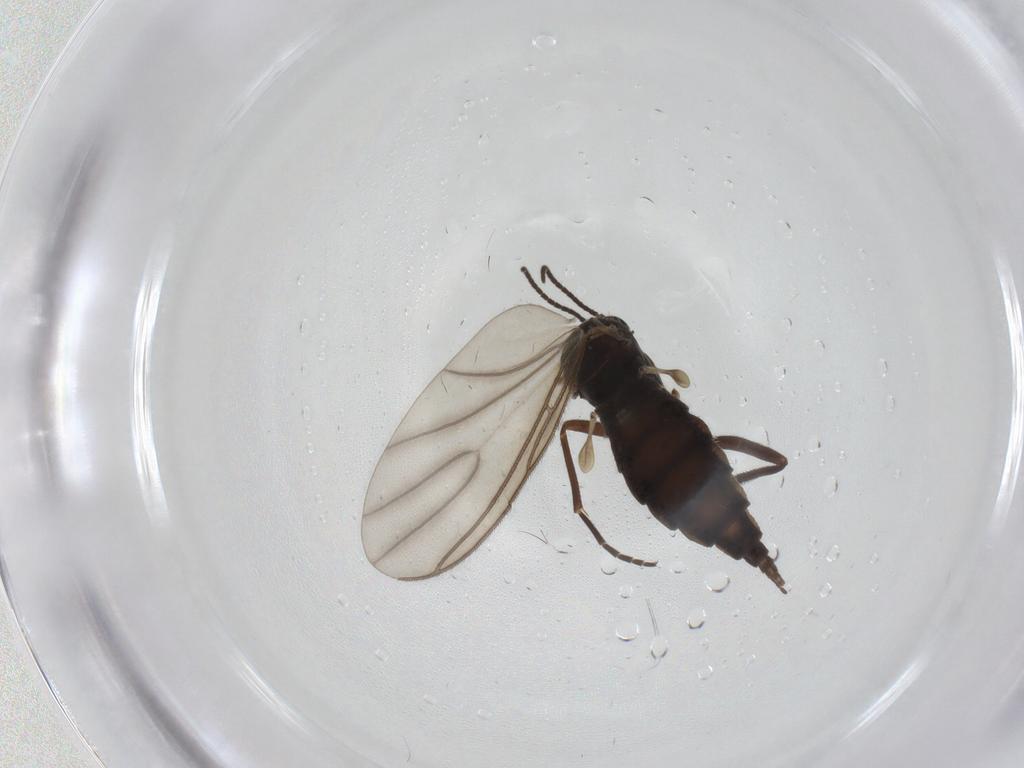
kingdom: Animalia
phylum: Arthropoda
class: Insecta
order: Diptera
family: Sciaridae
